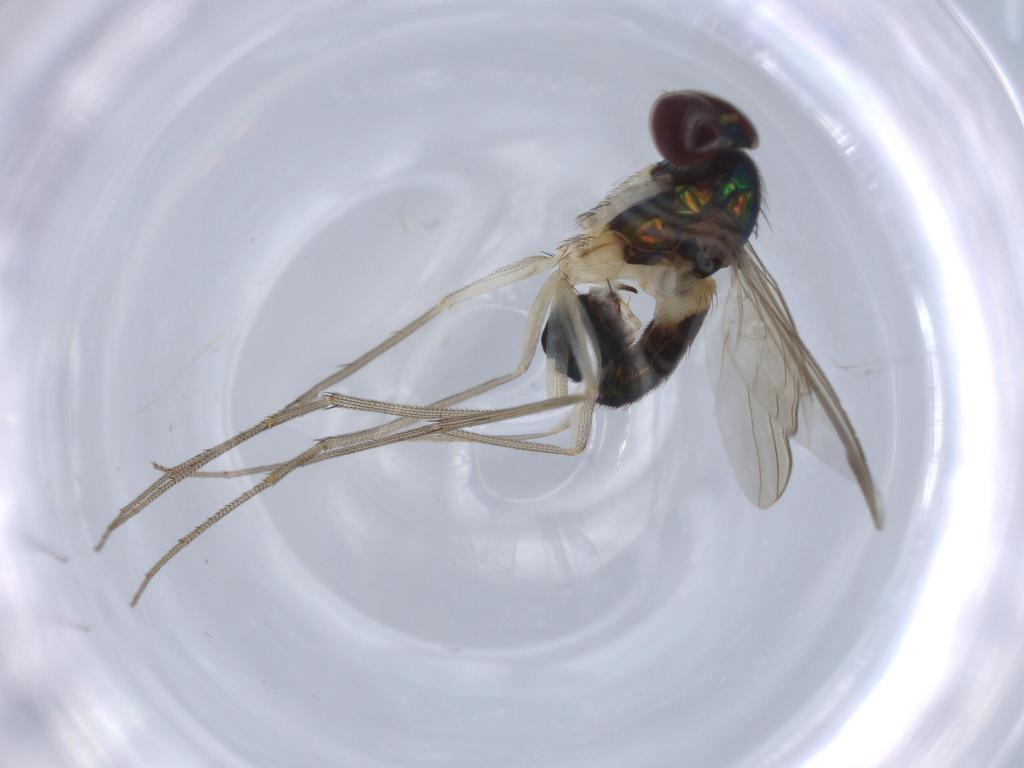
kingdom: Animalia
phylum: Arthropoda
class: Insecta
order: Diptera
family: Dolichopodidae
